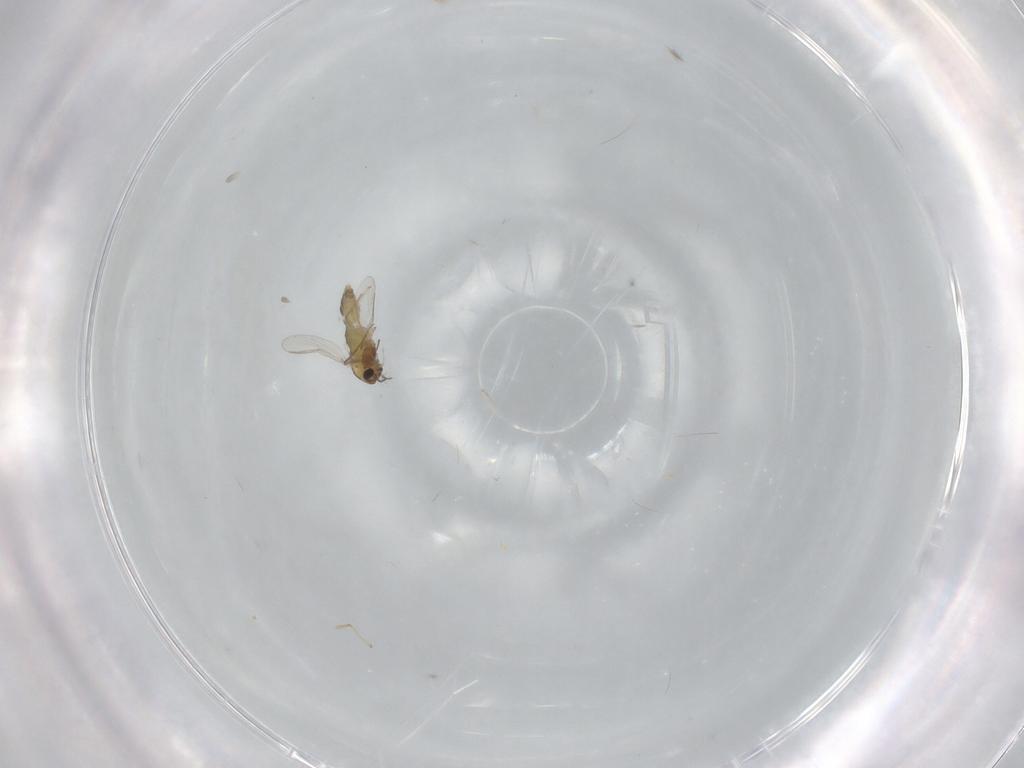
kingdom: Animalia
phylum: Arthropoda
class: Insecta
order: Diptera
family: Chironomidae
